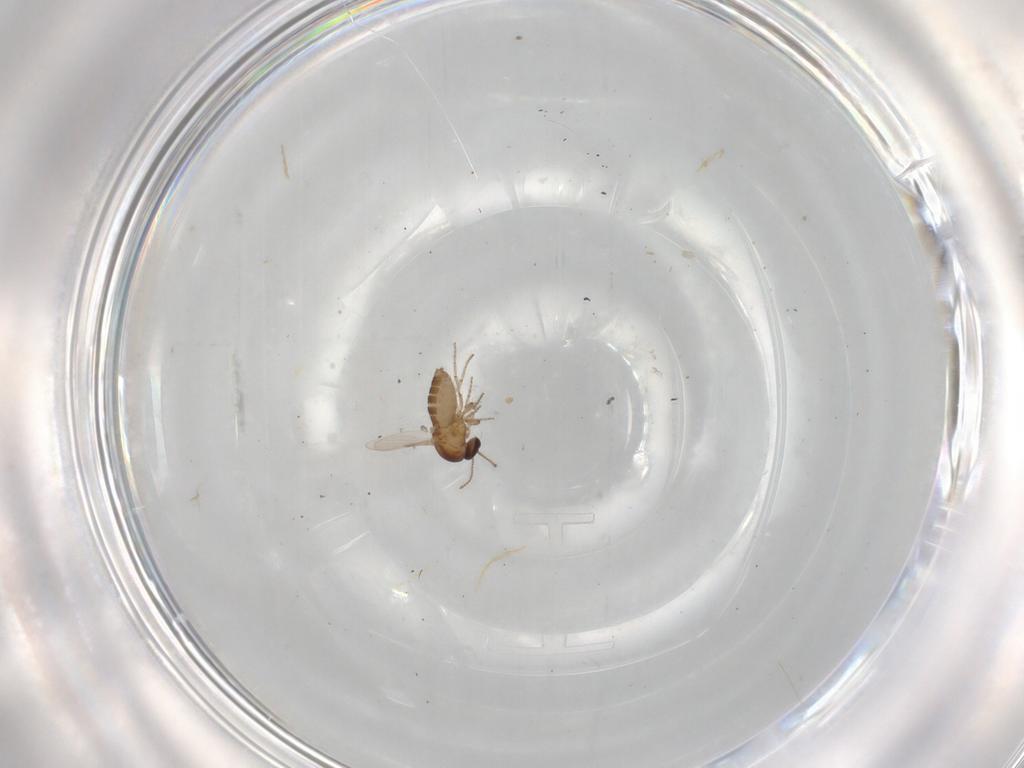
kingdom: Animalia
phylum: Arthropoda
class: Insecta
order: Diptera
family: Ceratopogonidae
